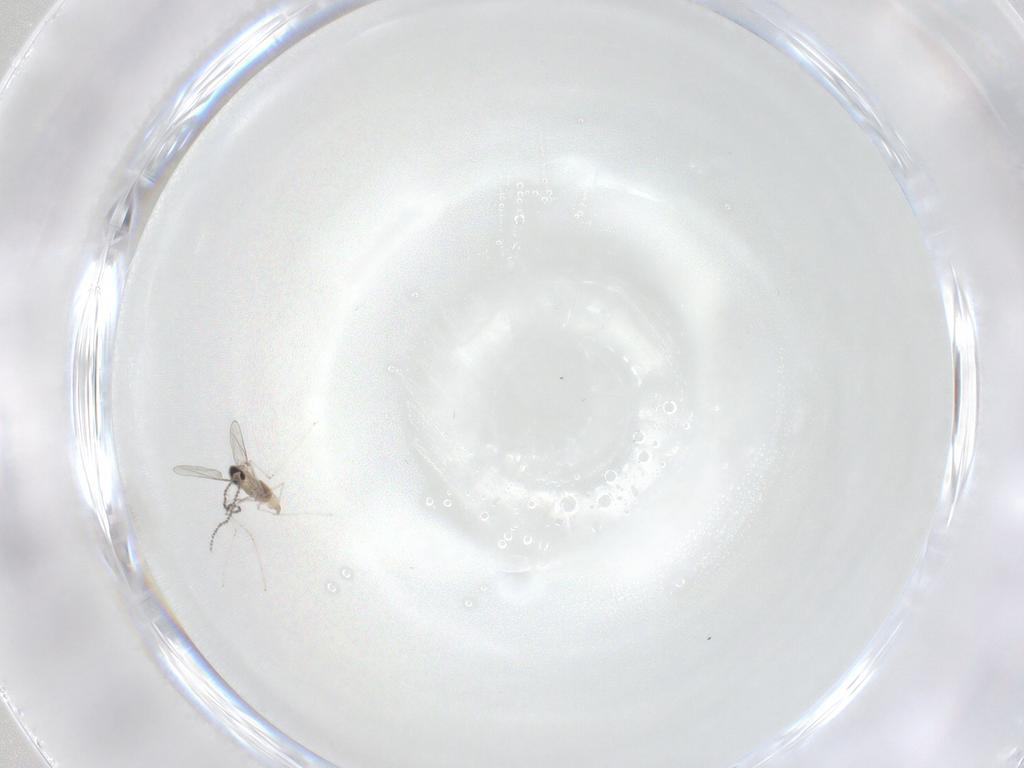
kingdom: Animalia
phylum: Arthropoda
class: Insecta
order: Diptera
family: Cecidomyiidae
